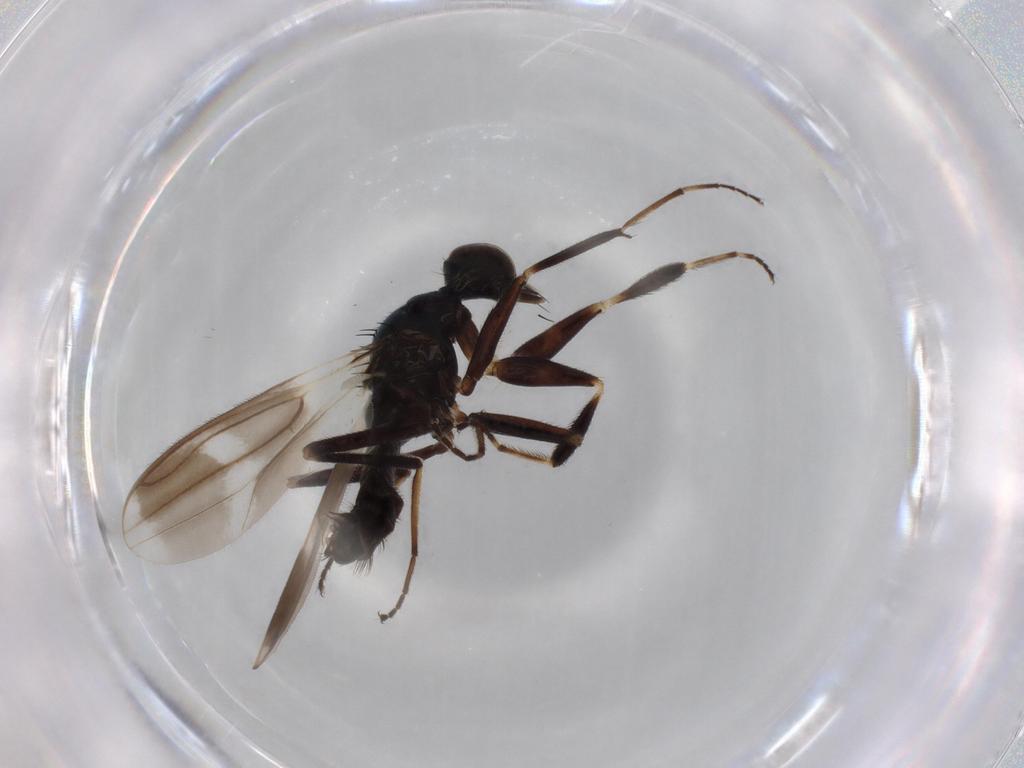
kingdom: Animalia
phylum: Arthropoda
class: Insecta
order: Diptera
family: Hybotidae
